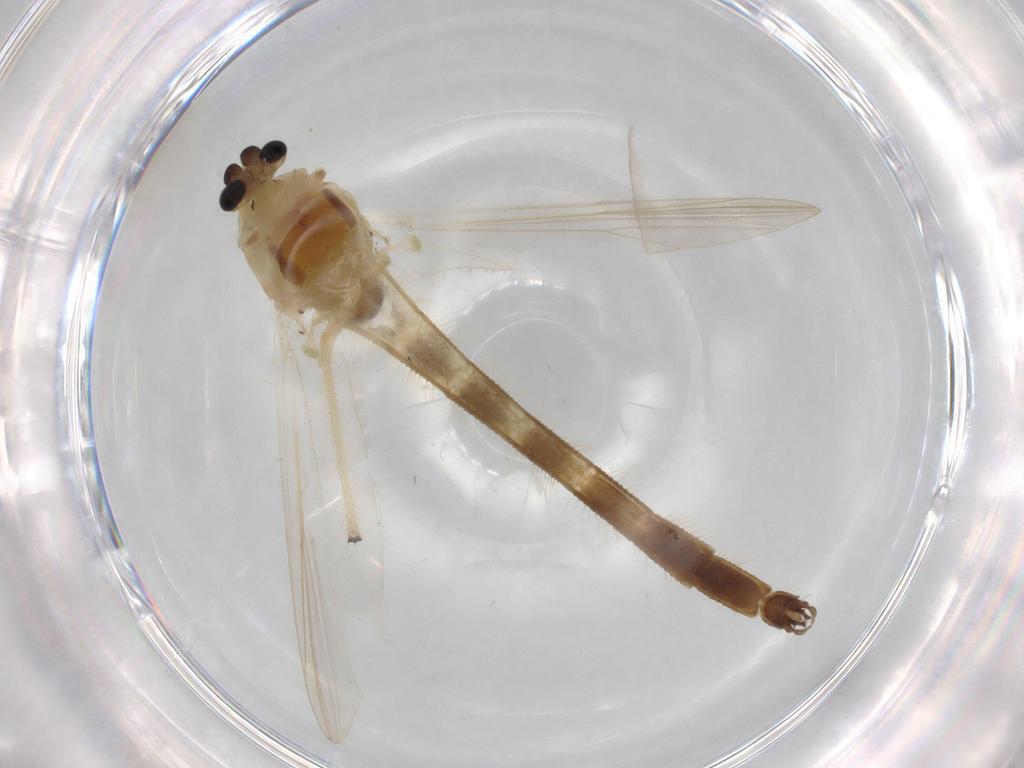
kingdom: Animalia
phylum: Arthropoda
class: Insecta
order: Diptera
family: Chironomidae
